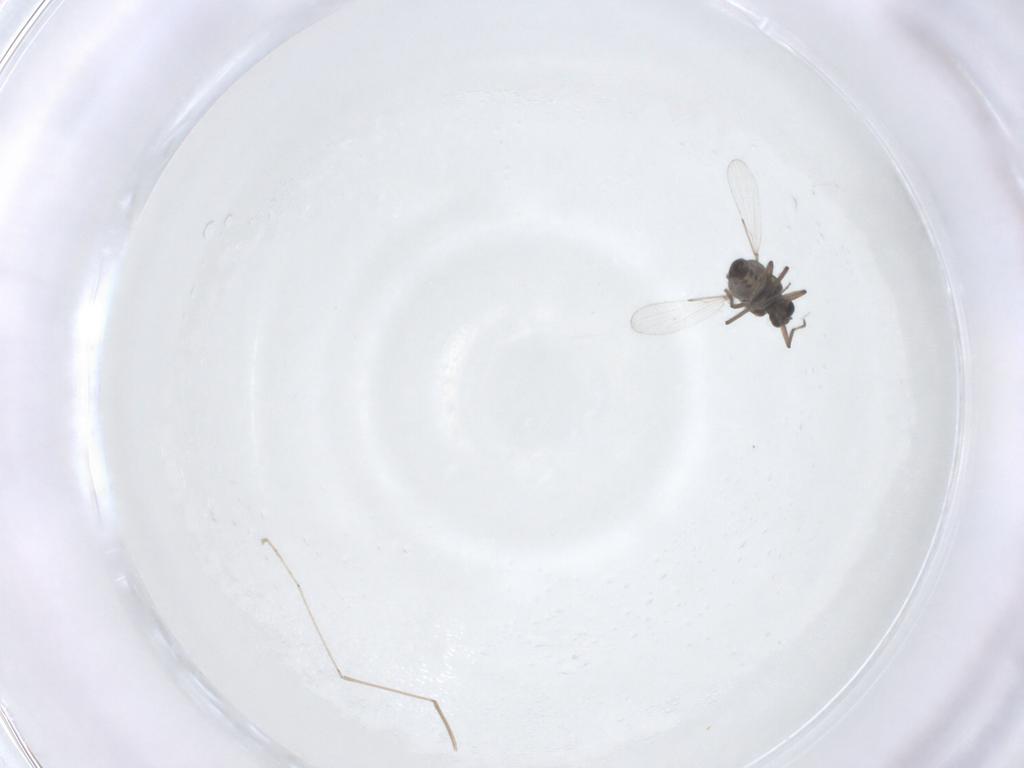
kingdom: Animalia
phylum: Arthropoda
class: Insecta
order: Diptera
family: Ceratopogonidae
